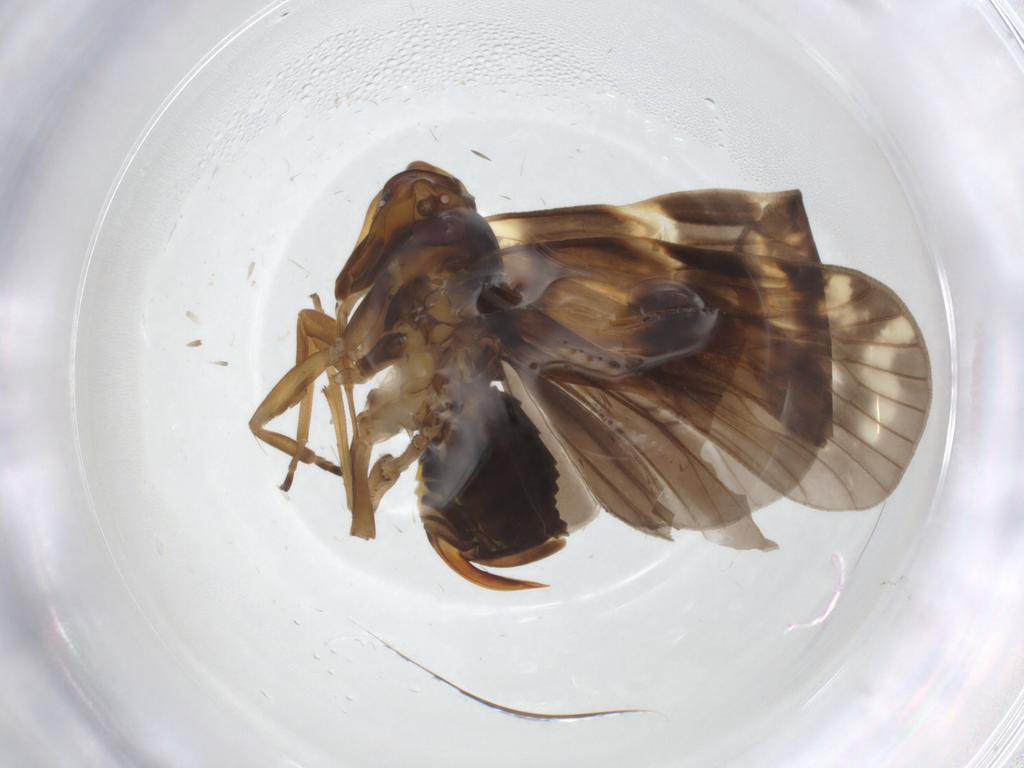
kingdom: Animalia
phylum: Arthropoda
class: Insecta
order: Hemiptera
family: Cixiidae
